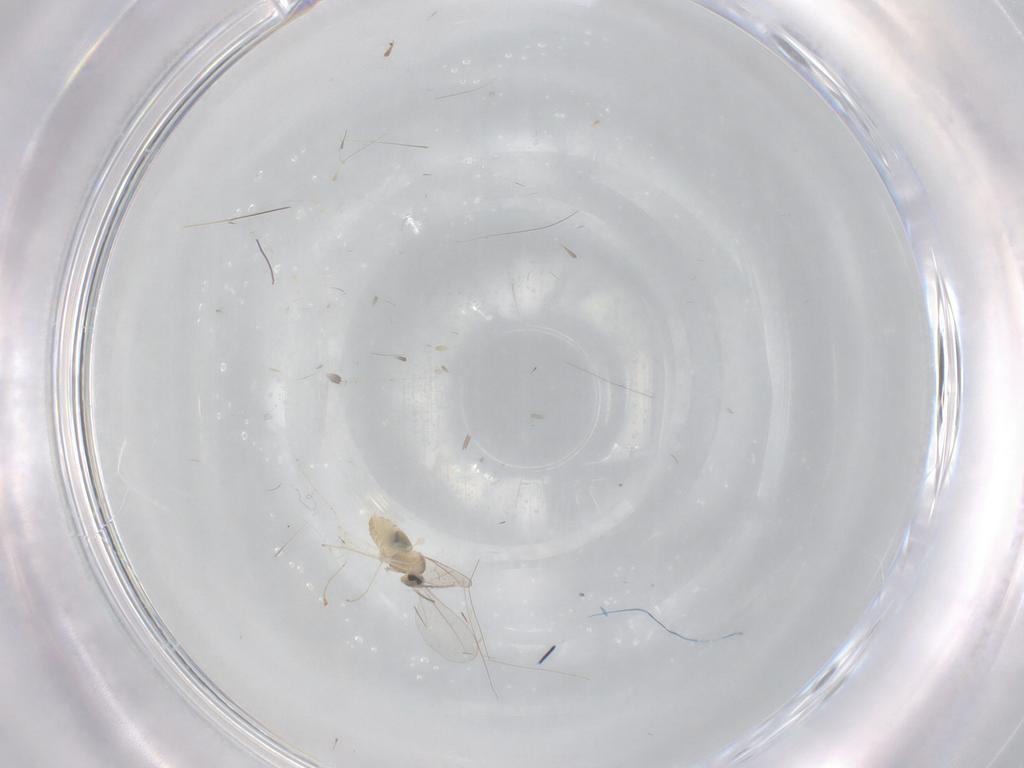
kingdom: Animalia
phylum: Arthropoda
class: Insecta
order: Diptera
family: Cecidomyiidae
